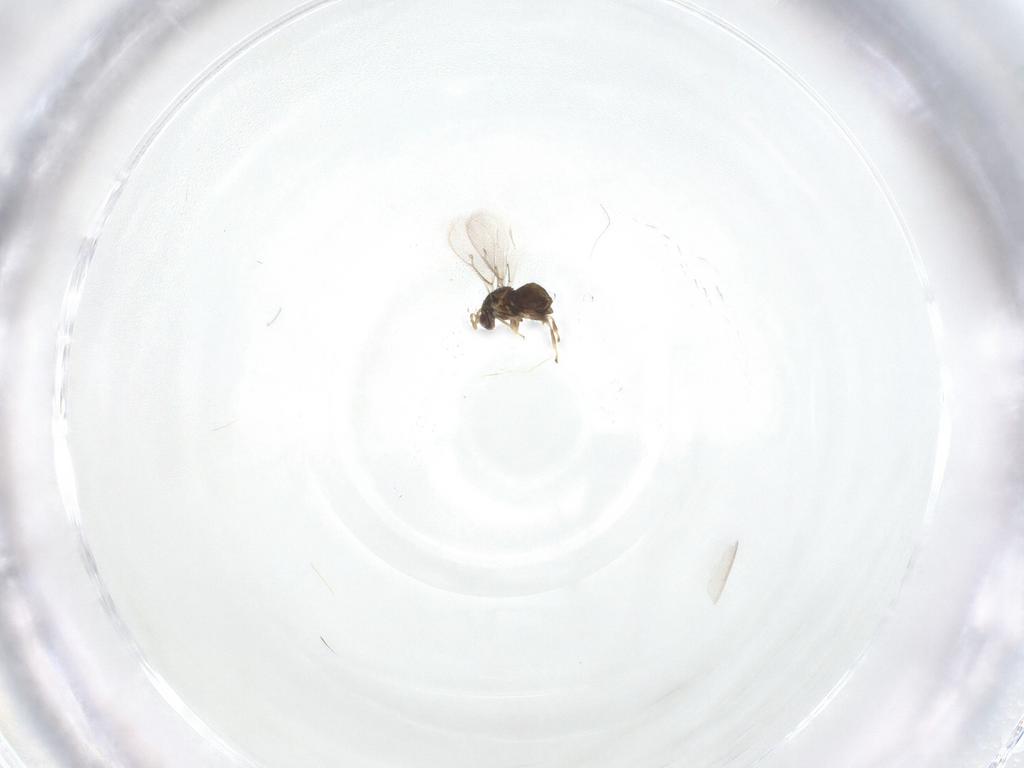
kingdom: Animalia
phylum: Arthropoda
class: Insecta
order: Hymenoptera
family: Eulophidae
